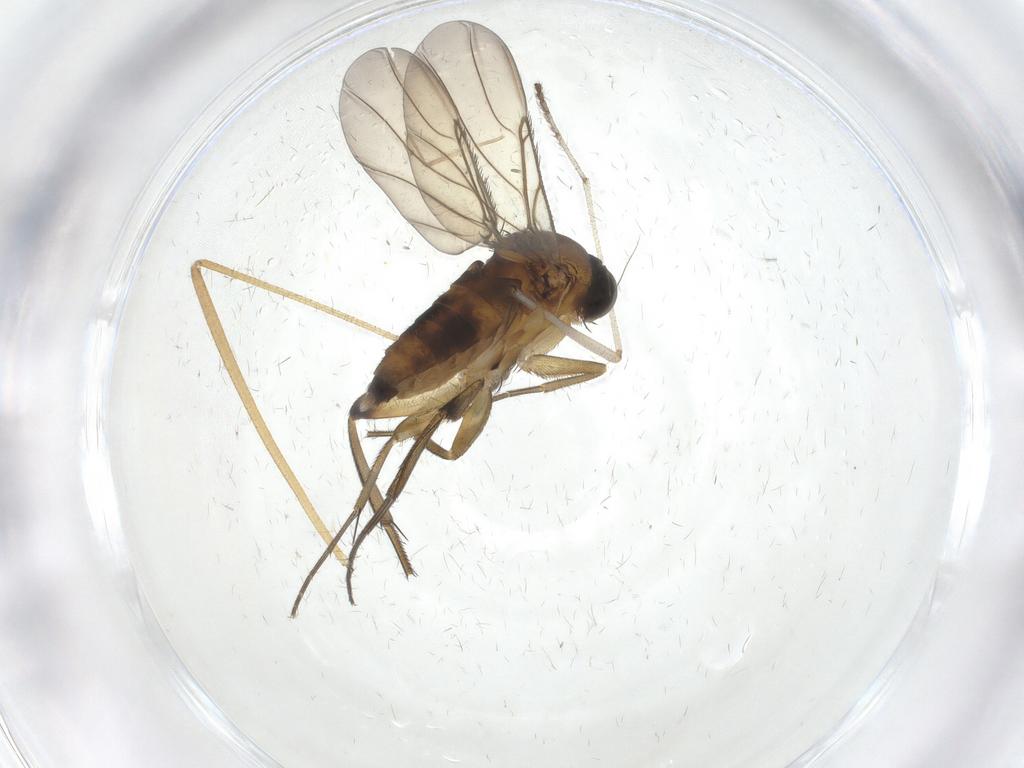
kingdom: Animalia
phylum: Arthropoda
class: Insecta
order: Diptera
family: Phoridae
